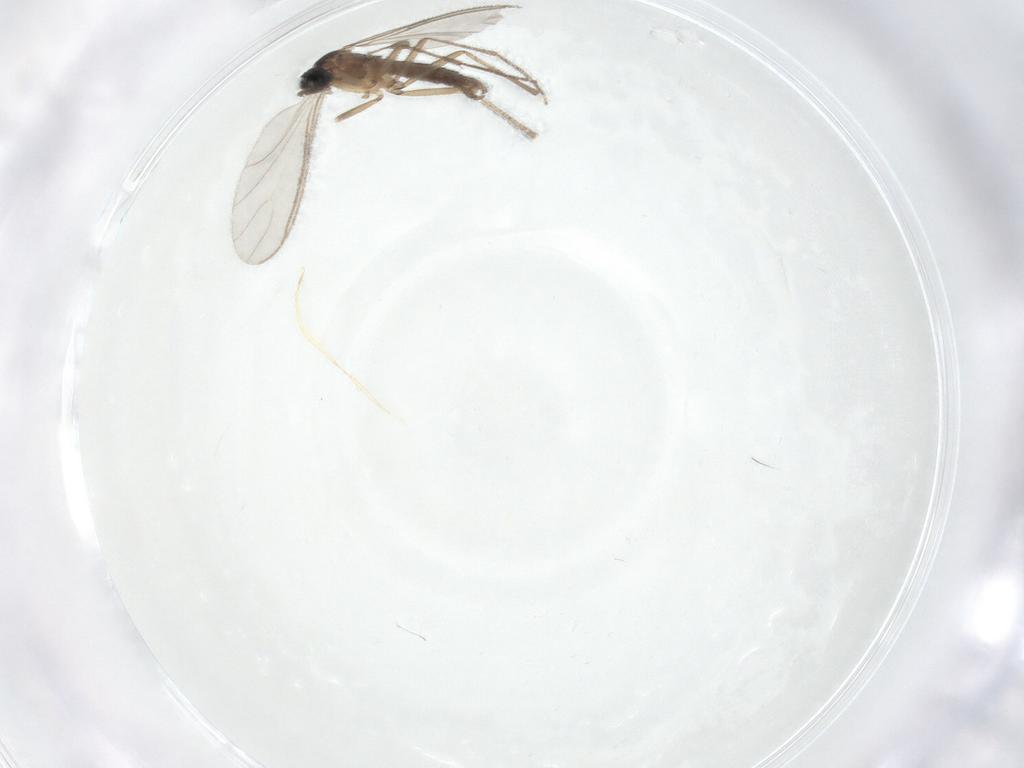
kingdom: Animalia
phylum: Arthropoda
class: Insecta
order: Diptera
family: Sciaridae
